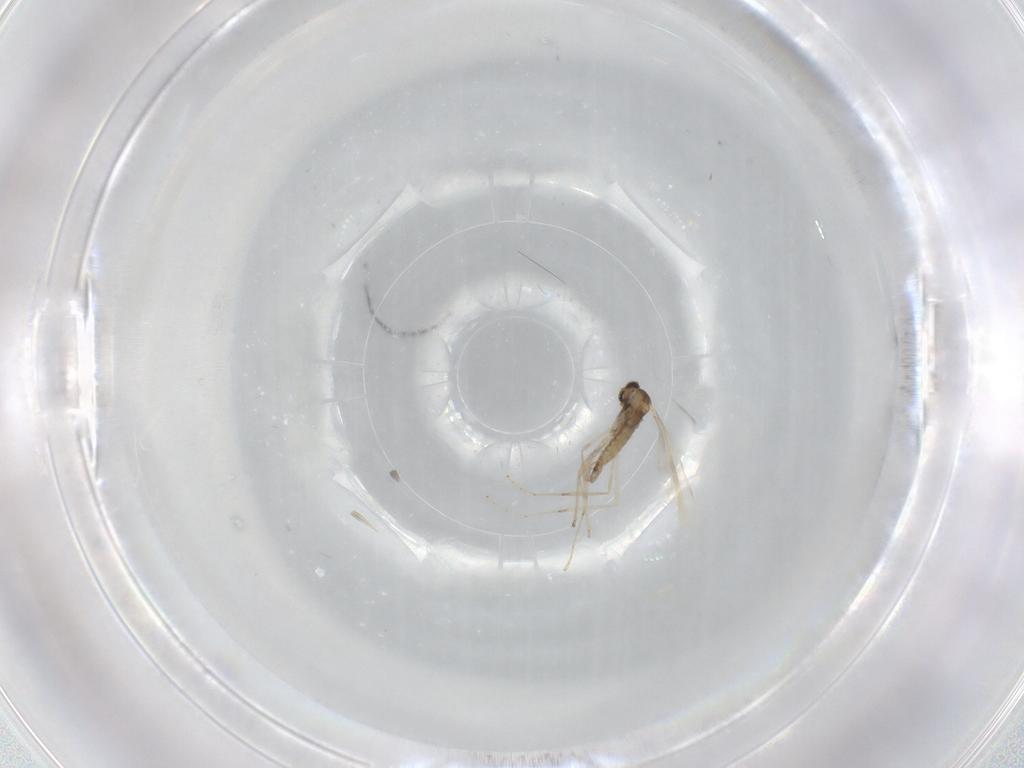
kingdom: Animalia
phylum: Arthropoda
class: Insecta
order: Diptera
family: Cecidomyiidae
